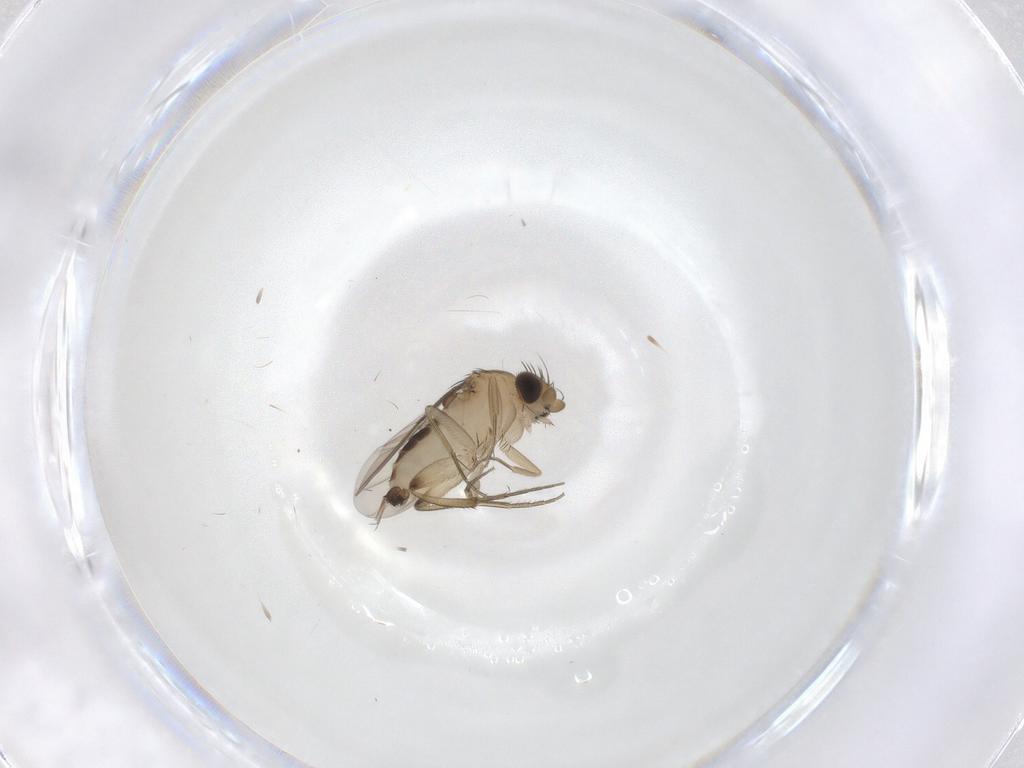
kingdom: Animalia
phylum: Arthropoda
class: Insecta
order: Diptera
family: Phoridae
